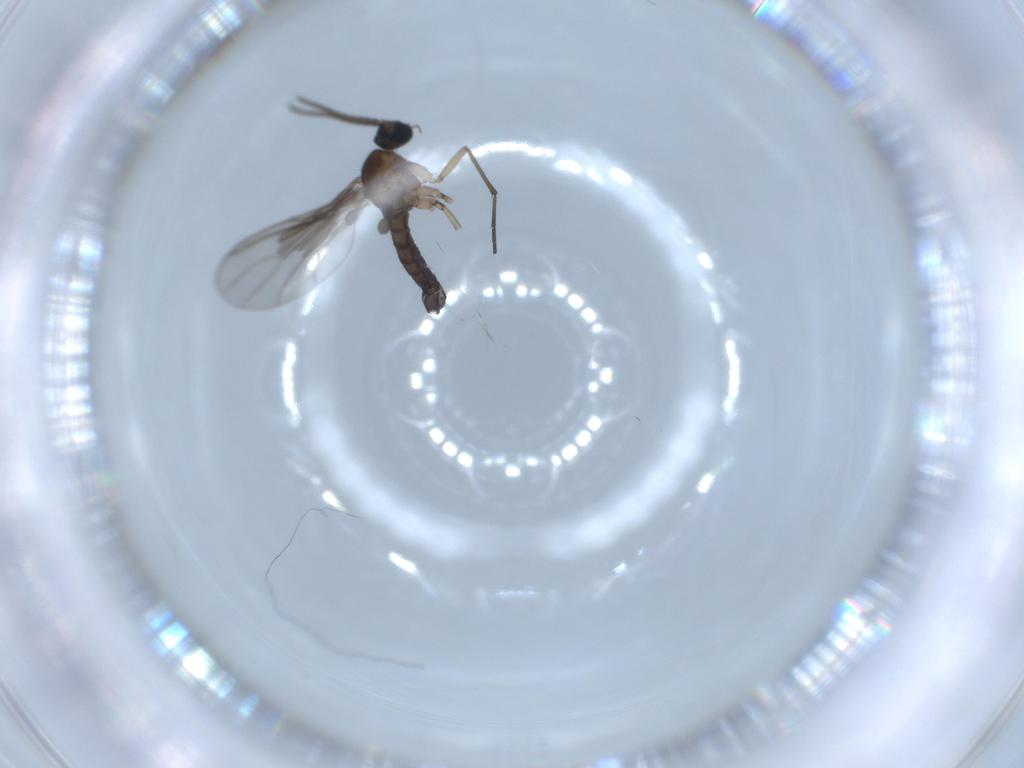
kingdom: Animalia
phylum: Arthropoda
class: Insecta
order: Diptera
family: Sciaridae
